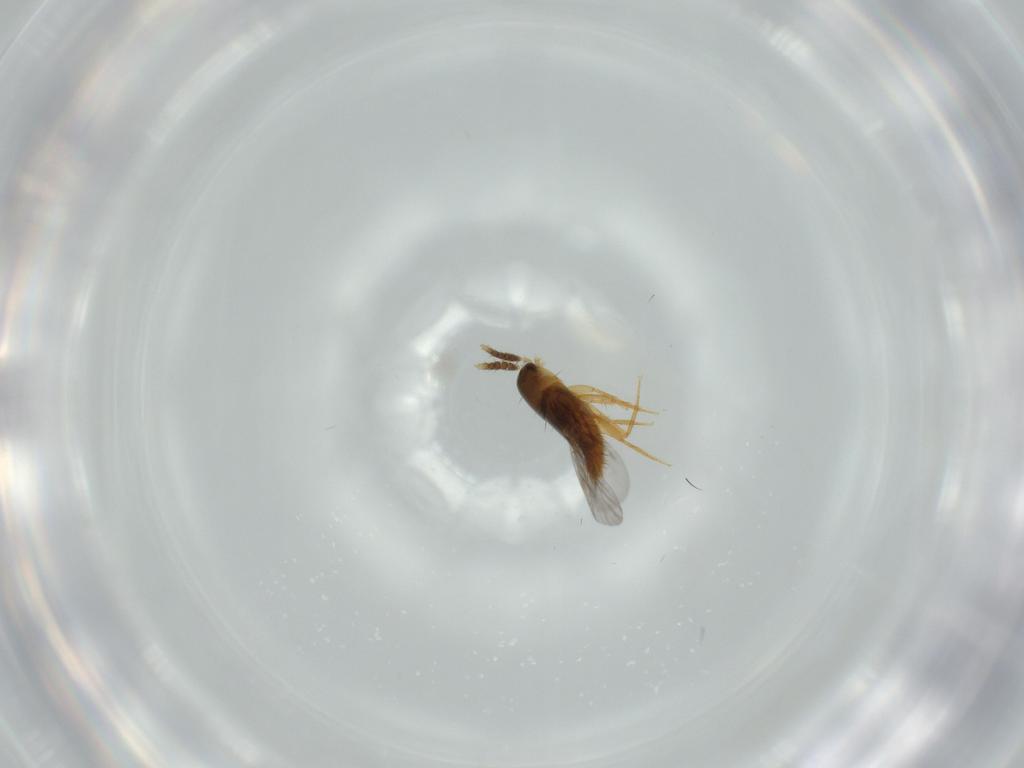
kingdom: Animalia
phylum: Arthropoda
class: Insecta
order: Coleoptera
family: Staphylinidae
